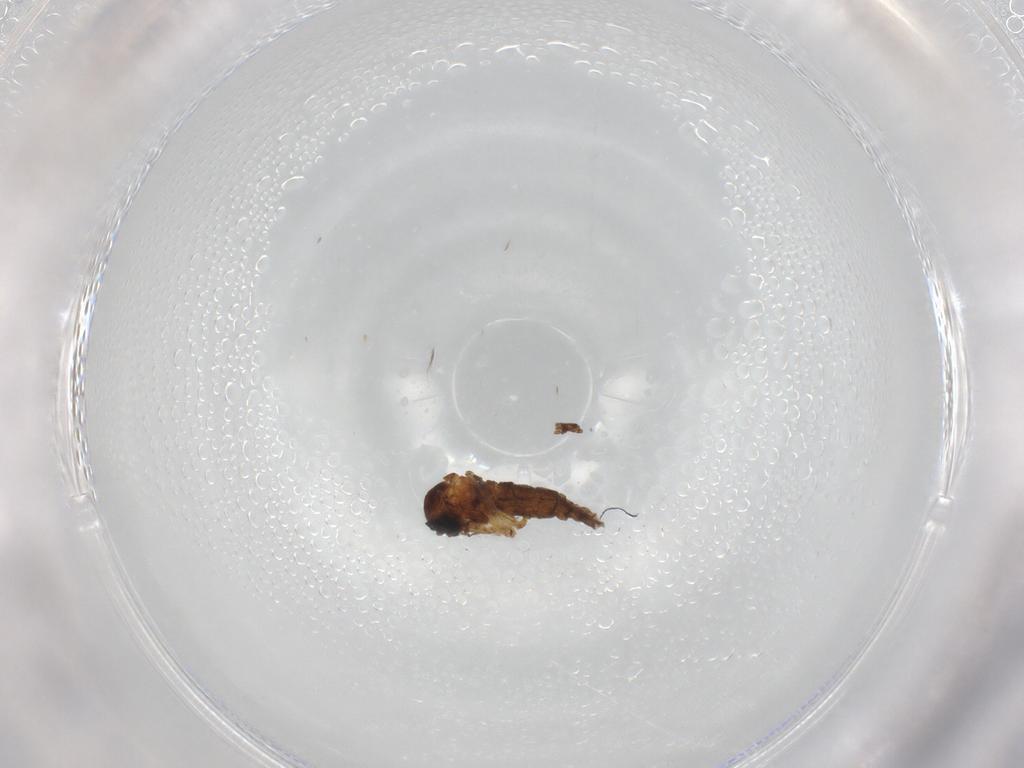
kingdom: Animalia
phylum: Arthropoda
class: Insecta
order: Diptera
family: Sciaridae
